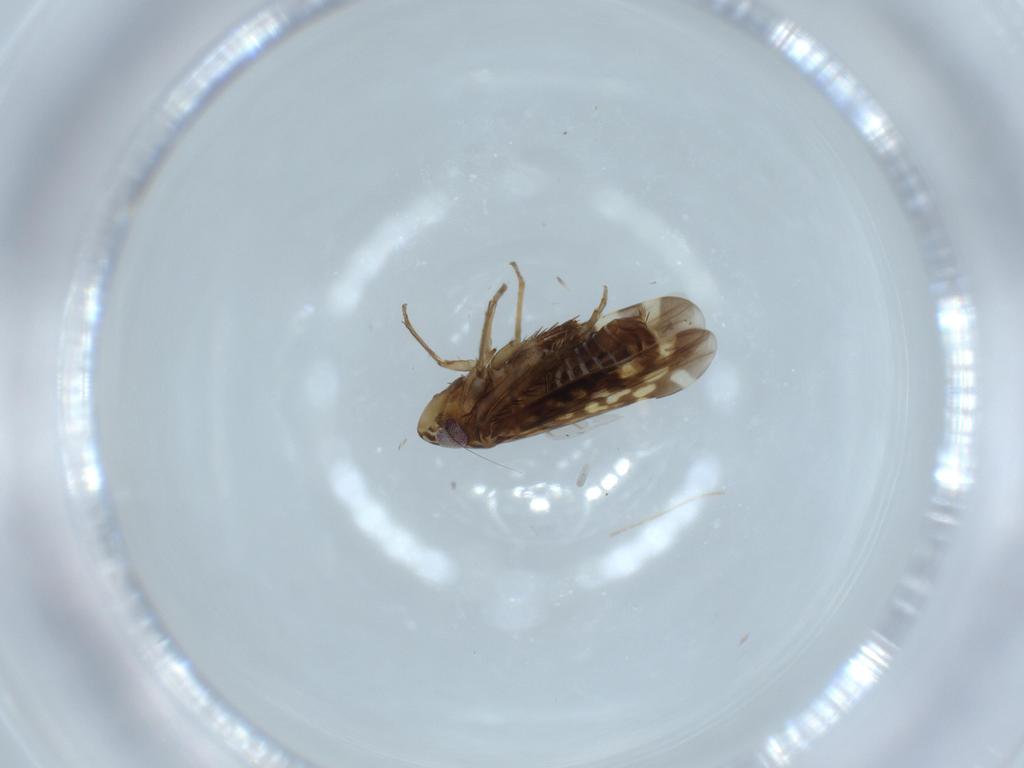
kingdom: Animalia
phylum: Arthropoda
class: Insecta
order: Hemiptera
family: Cicadellidae
